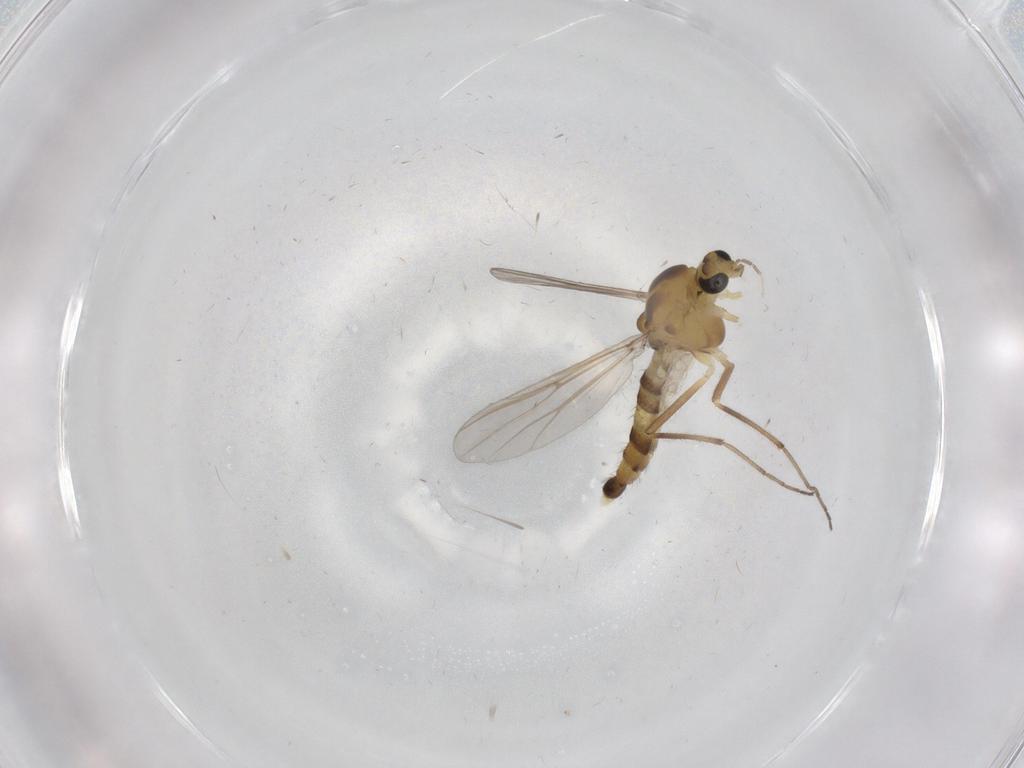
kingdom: Animalia
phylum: Arthropoda
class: Insecta
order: Diptera
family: Chironomidae
